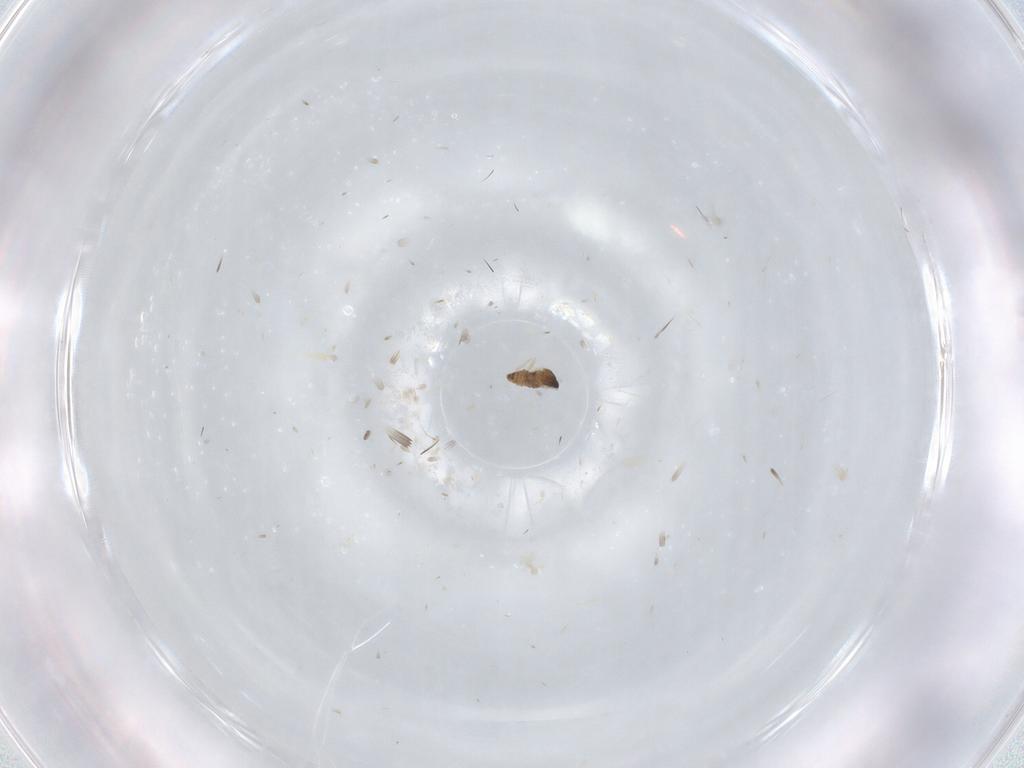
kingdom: Animalia
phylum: Arthropoda
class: Insecta
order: Diptera
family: Cecidomyiidae
